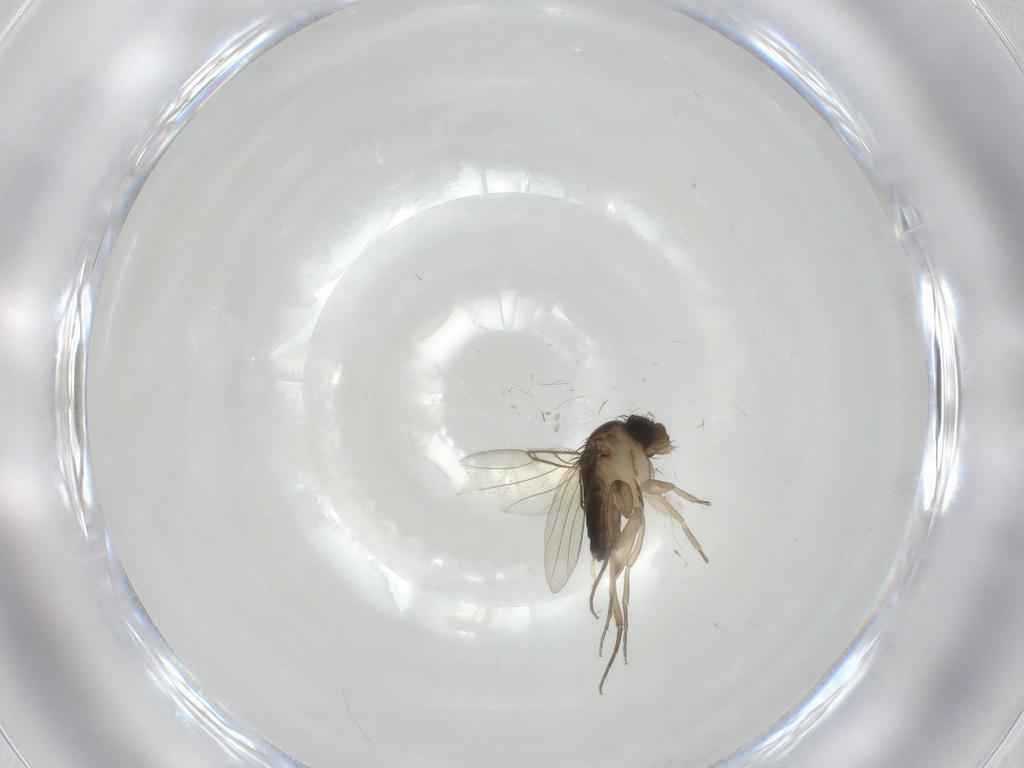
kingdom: Animalia
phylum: Arthropoda
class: Insecta
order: Diptera
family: Phoridae
